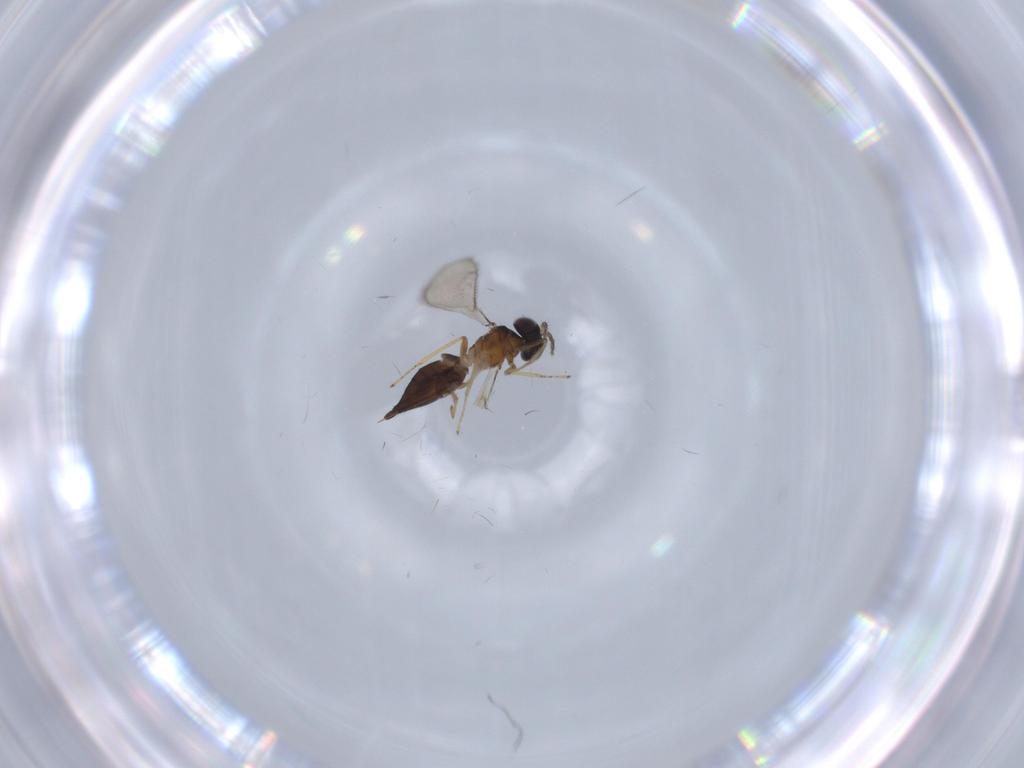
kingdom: Animalia
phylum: Arthropoda
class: Insecta
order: Hymenoptera
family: Eulophidae
